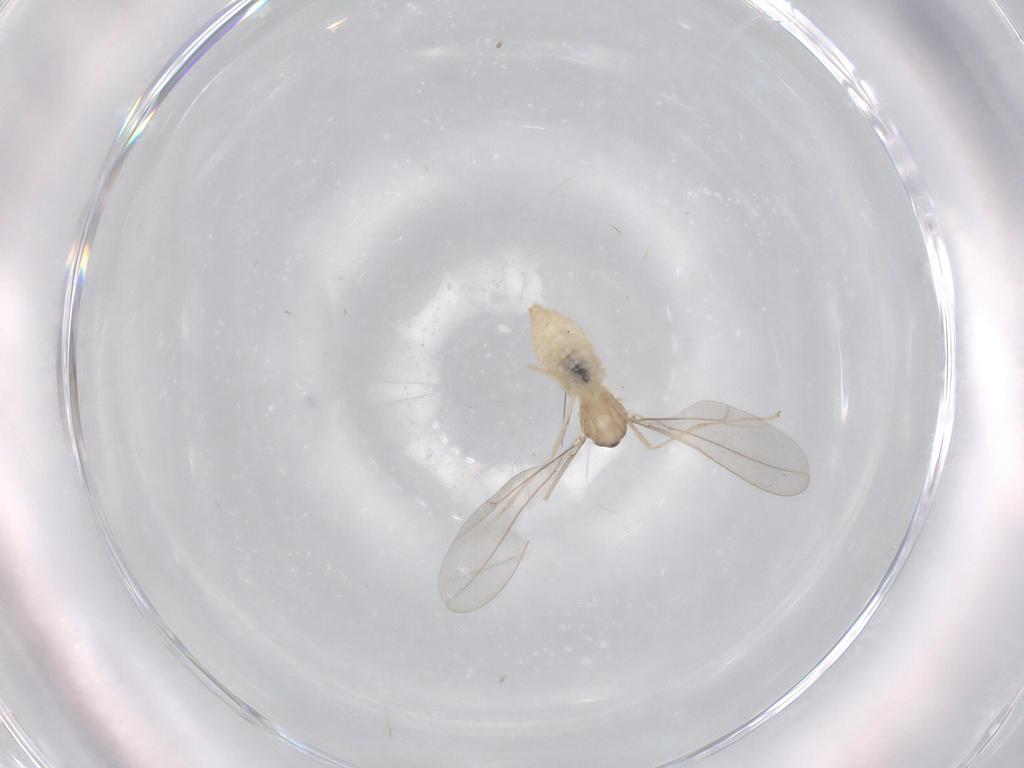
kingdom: Animalia
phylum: Arthropoda
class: Insecta
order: Diptera
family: Cecidomyiidae
